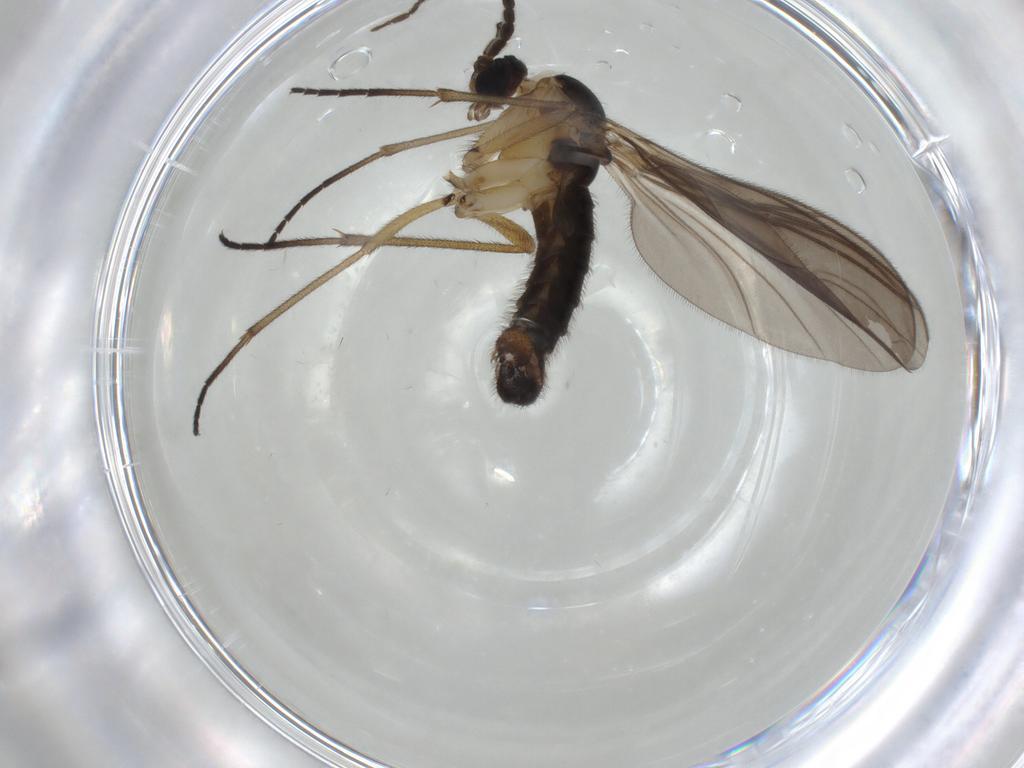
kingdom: Animalia
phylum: Arthropoda
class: Insecta
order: Diptera
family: Sciaridae
